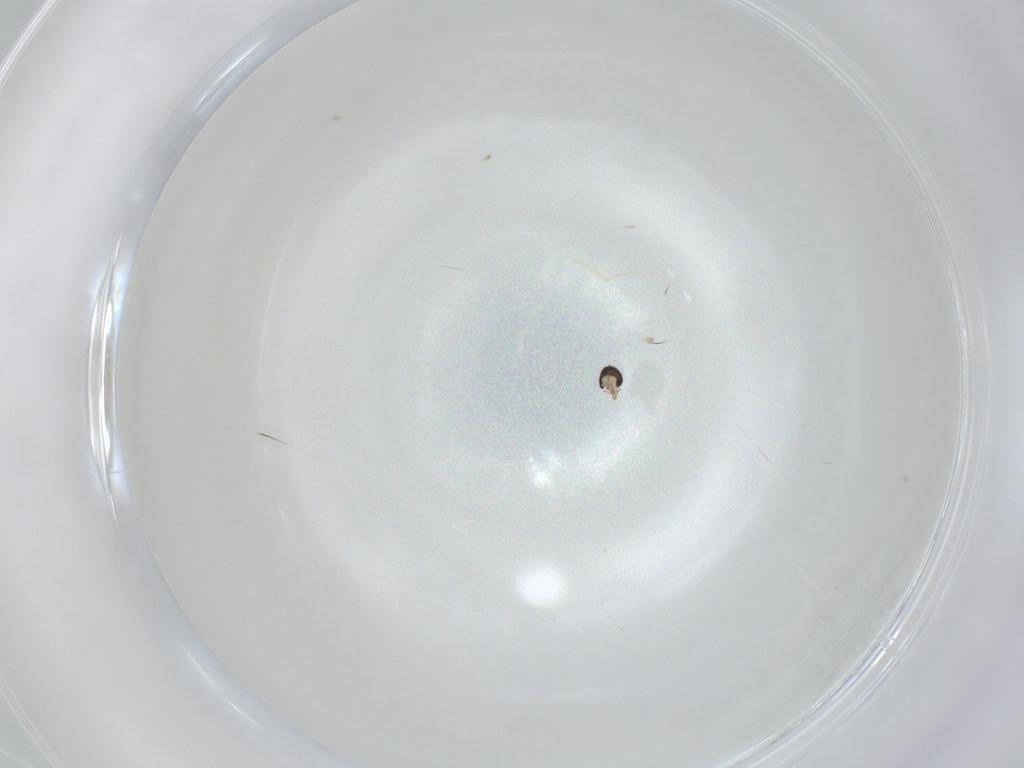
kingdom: Animalia
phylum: Arthropoda
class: Insecta
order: Diptera
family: Cecidomyiidae
